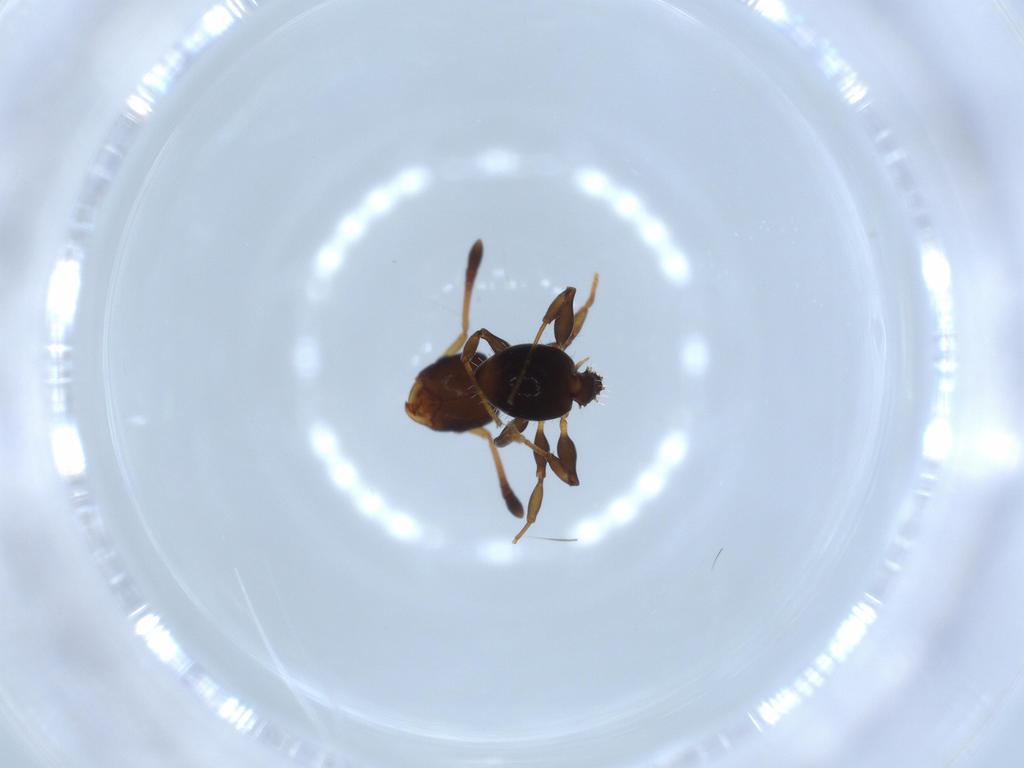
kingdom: Animalia
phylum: Arthropoda
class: Insecta
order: Hymenoptera
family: Formicidae
